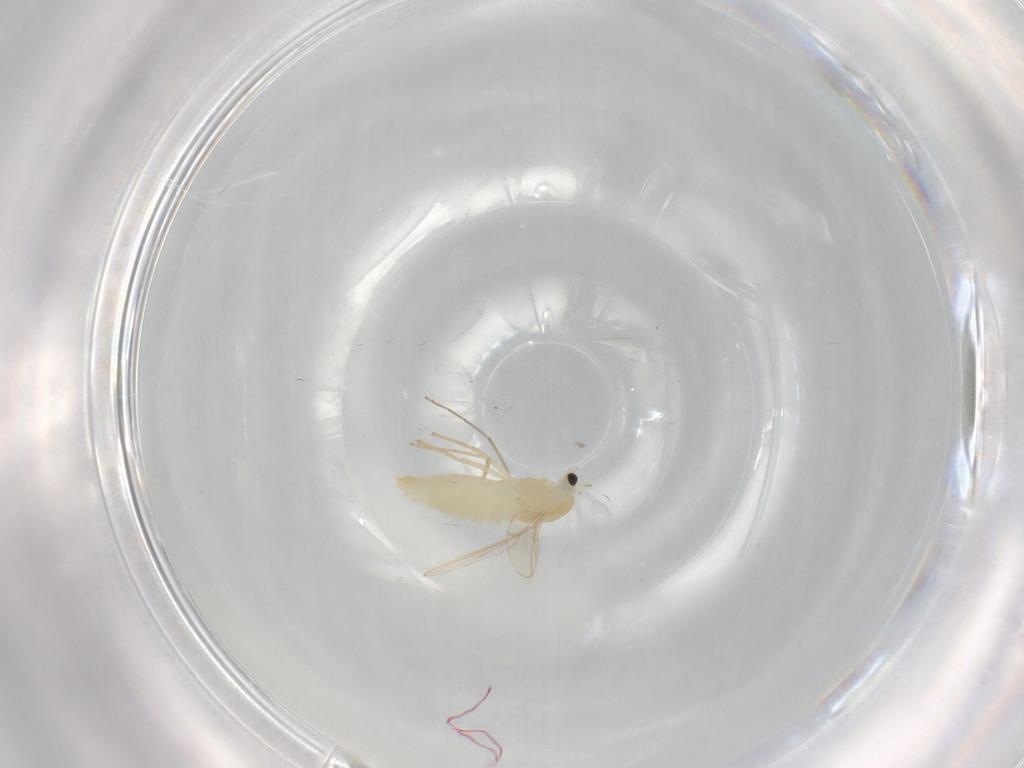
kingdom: Animalia
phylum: Arthropoda
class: Insecta
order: Diptera
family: Chironomidae
